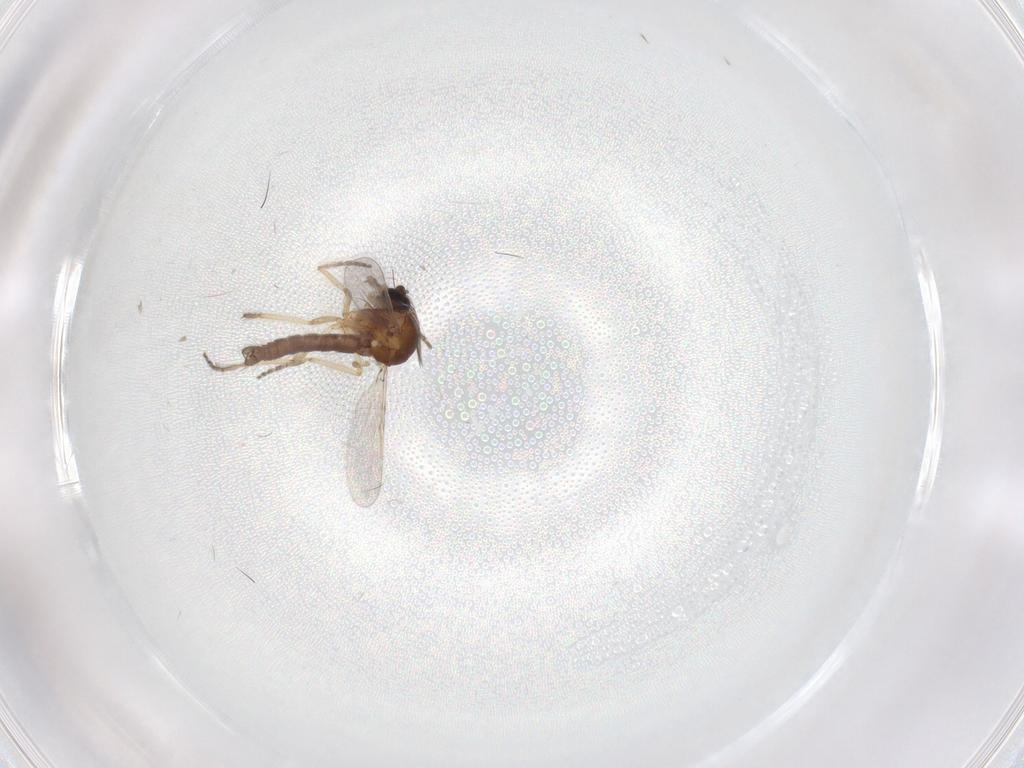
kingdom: Animalia
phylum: Arthropoda
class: Insecta
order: Diptera
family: Ceratopogonidae
